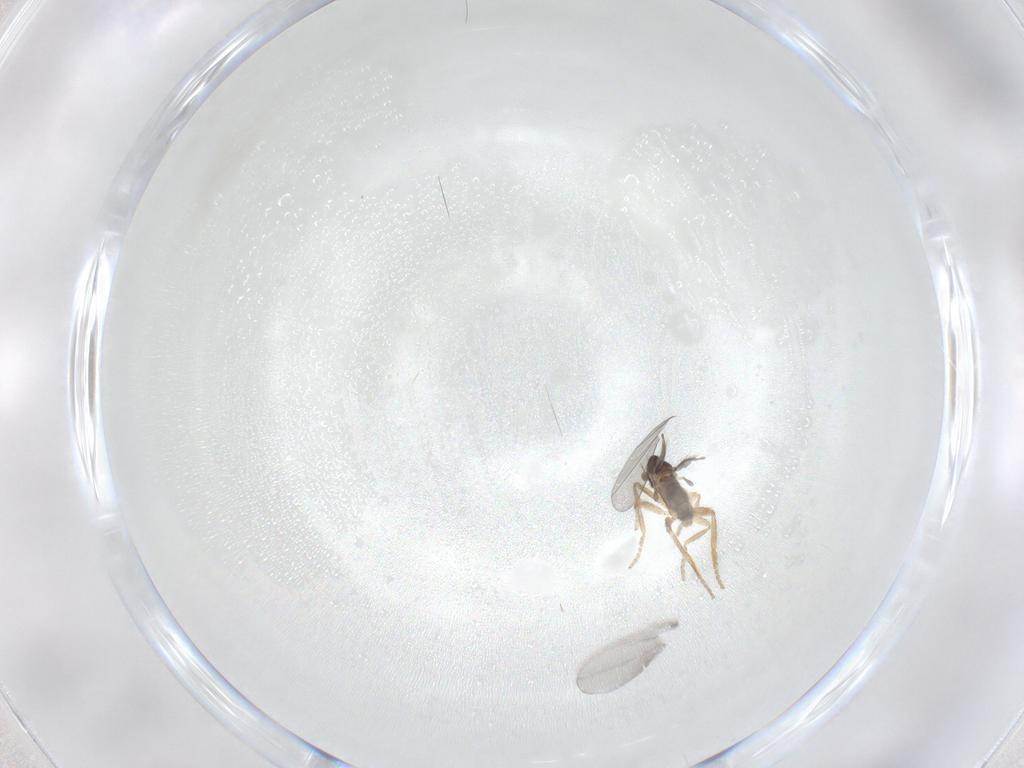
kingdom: Animalia
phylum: Arthropoda
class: Insecta
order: Diptera
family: Phoridae
